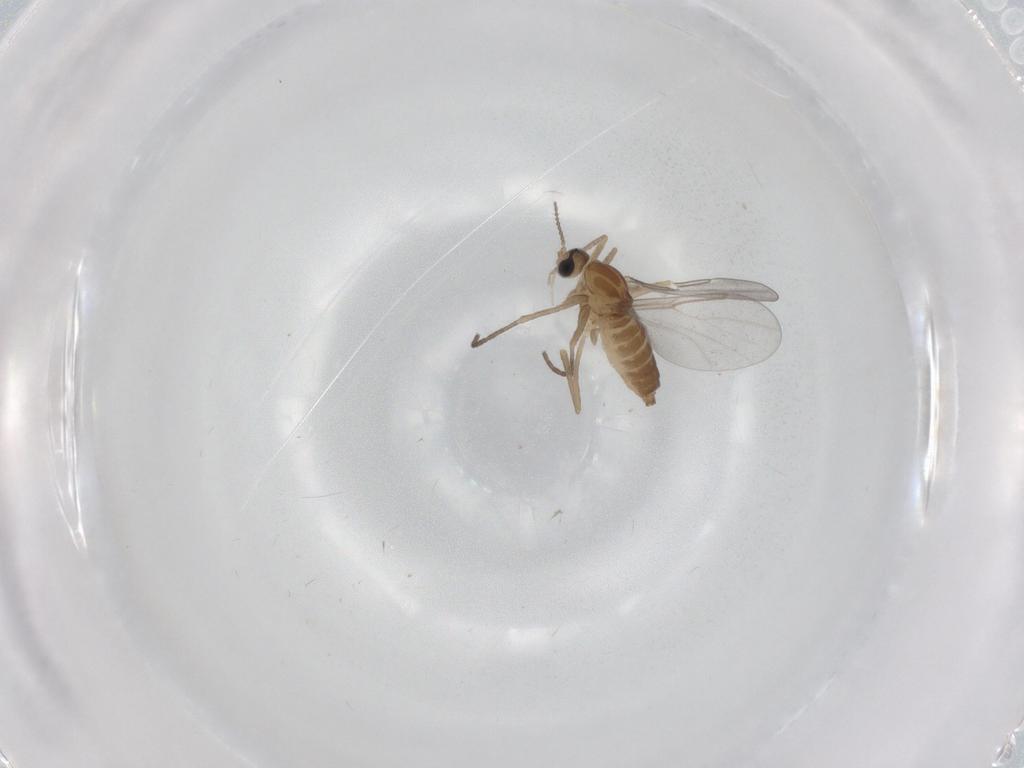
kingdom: Animalia
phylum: Arthropoda
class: Insecta
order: Diptera
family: Cecidomyiidae
